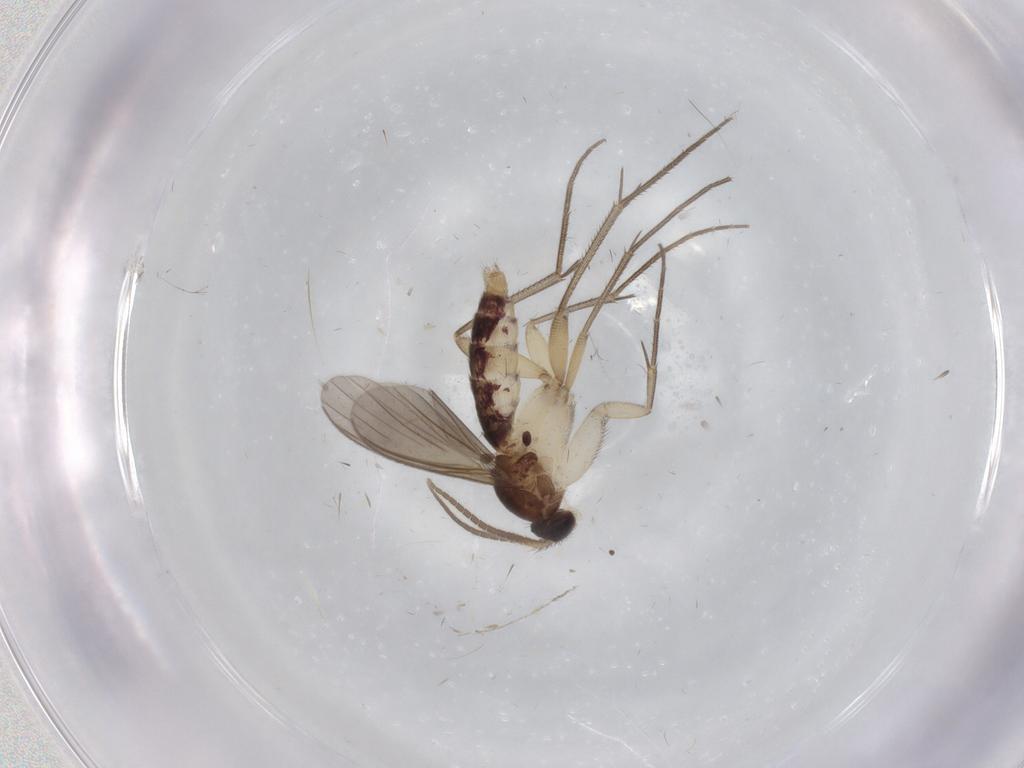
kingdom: Animalia
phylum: Arthropoda
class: Insecta
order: Diptera
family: Mycetophilidae
